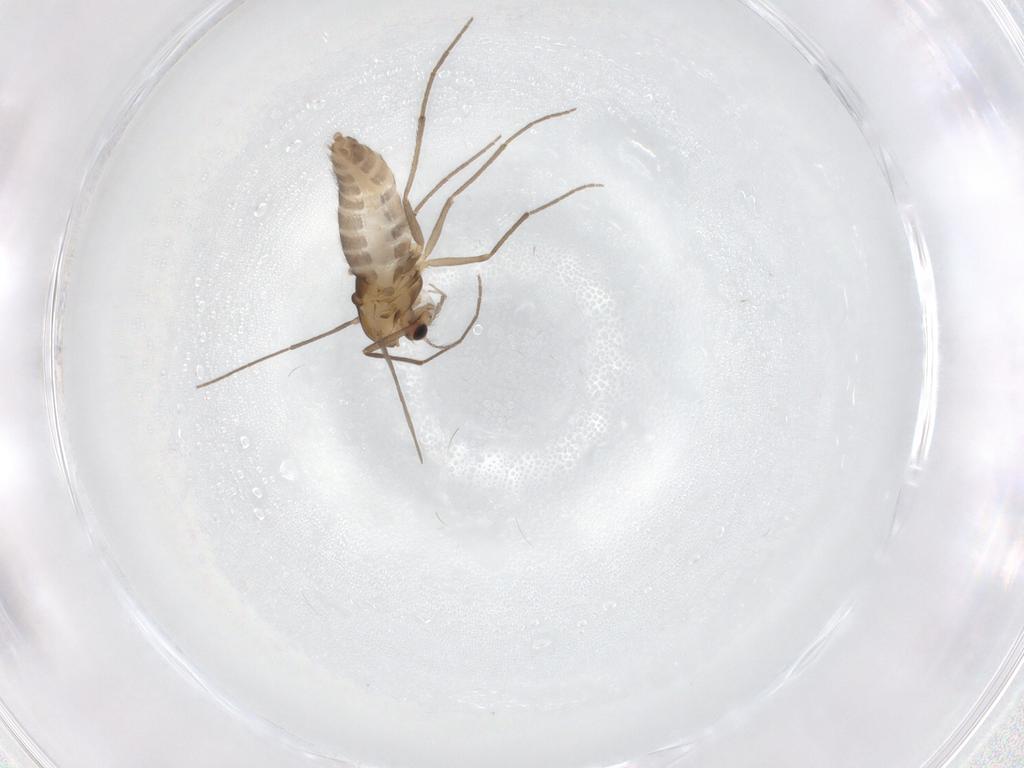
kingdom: Animalia
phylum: Arthropoda
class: Insecta
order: Diptera
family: Chironomidae
